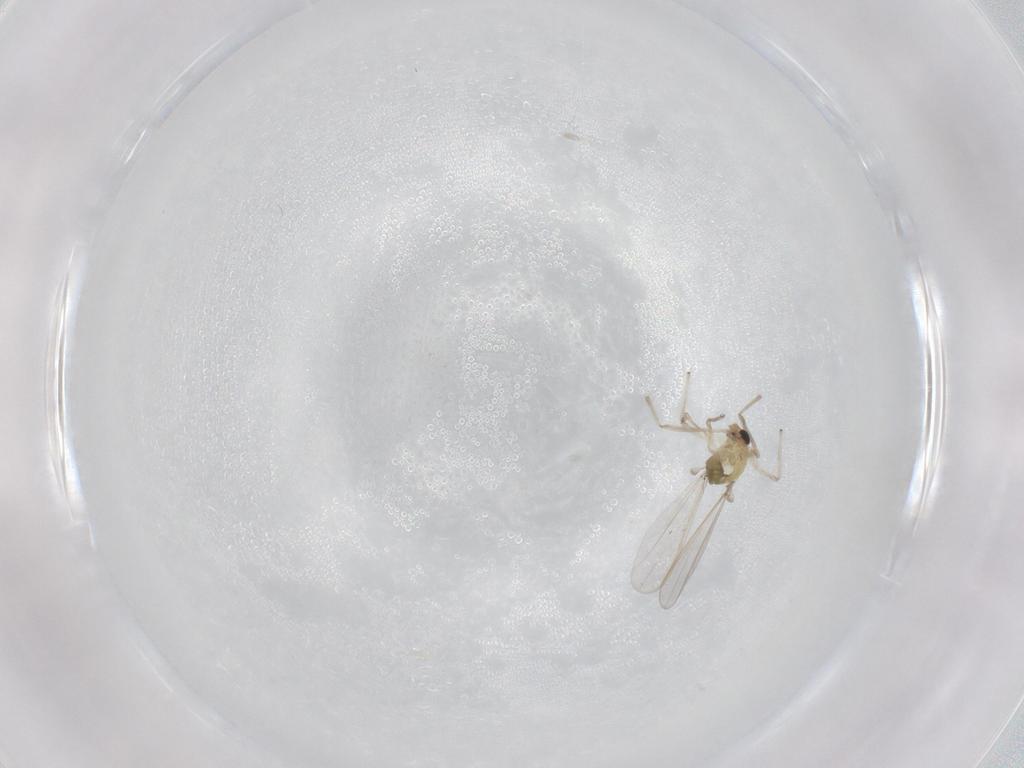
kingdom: Animalia
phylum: Arthropoda
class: Insecta
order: Diptera
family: Chironomidae
